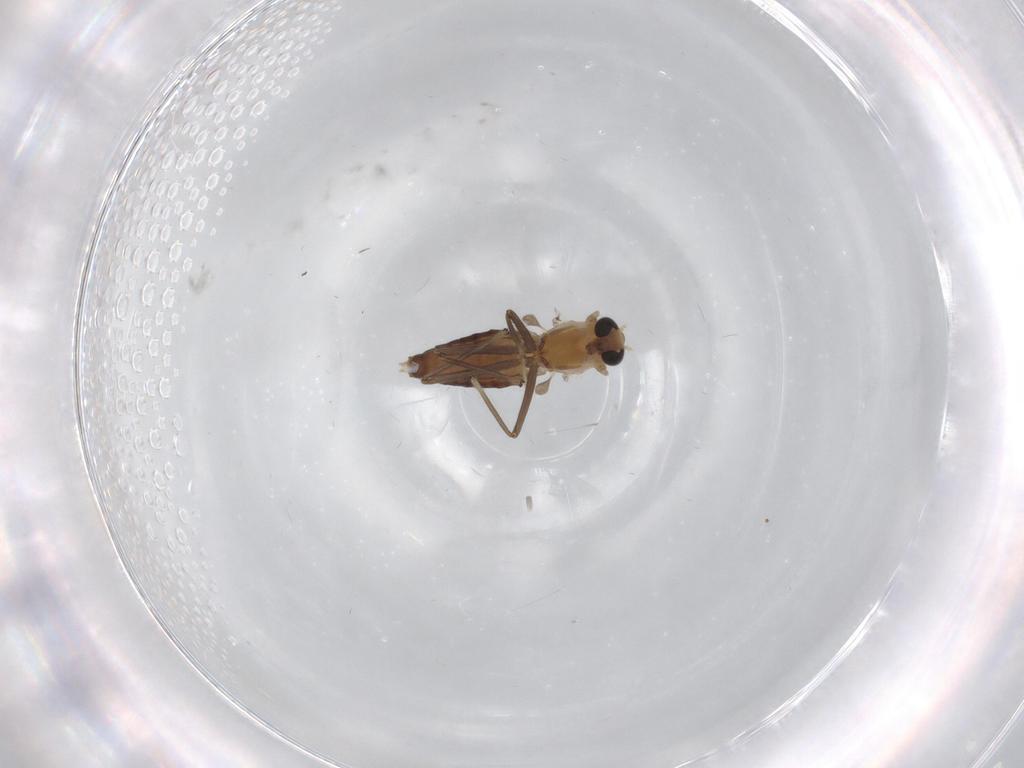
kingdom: Animalia
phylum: Arthropoda
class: Insecta
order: Diptera
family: Chironomidae
